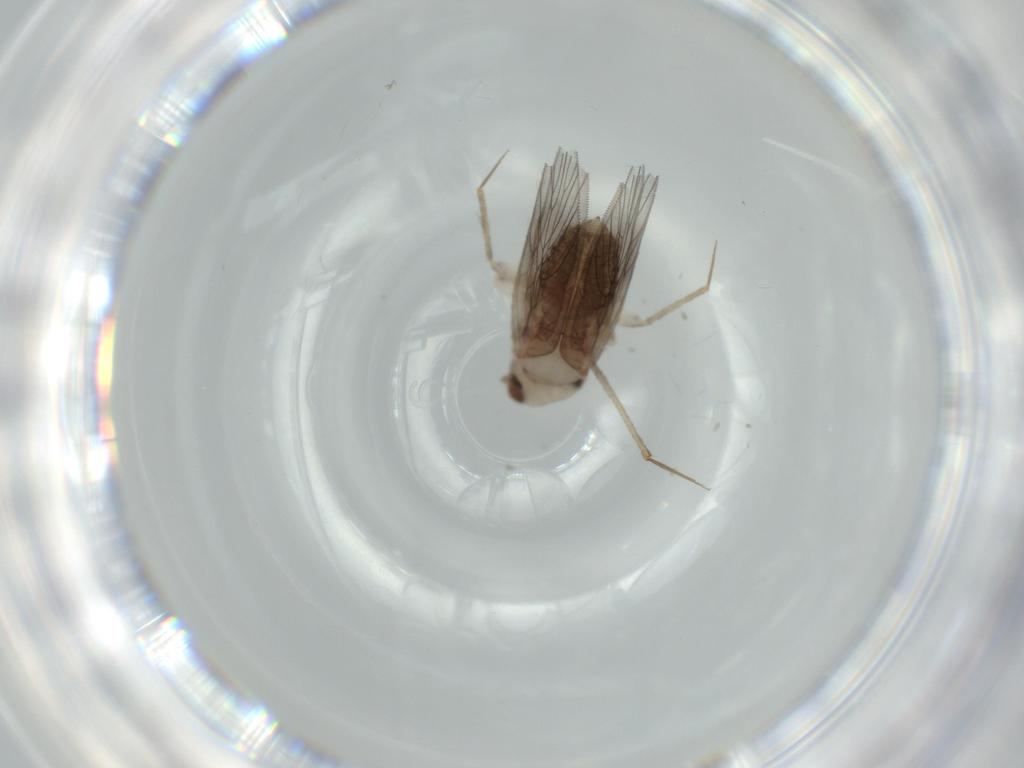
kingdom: Animalia
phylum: Arthropoda
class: Insecta
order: Psocodea
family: Lepidopsocidae
